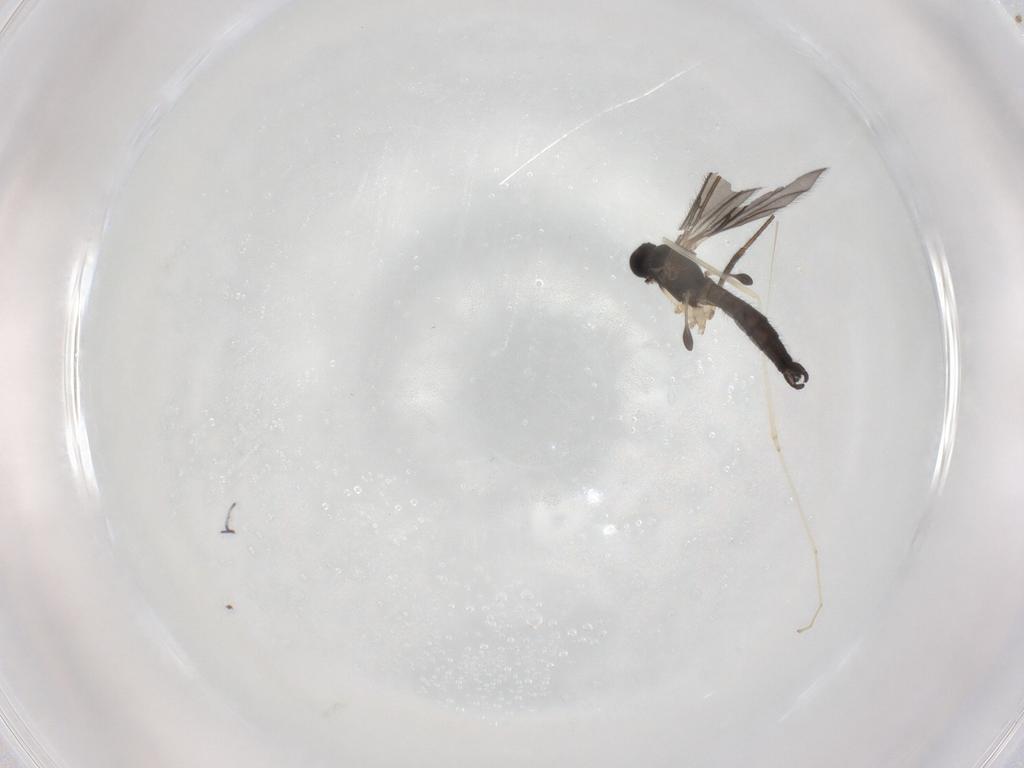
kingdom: Animalia
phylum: Arthropoda
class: Insecta
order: Diptera
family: Sciaridae
